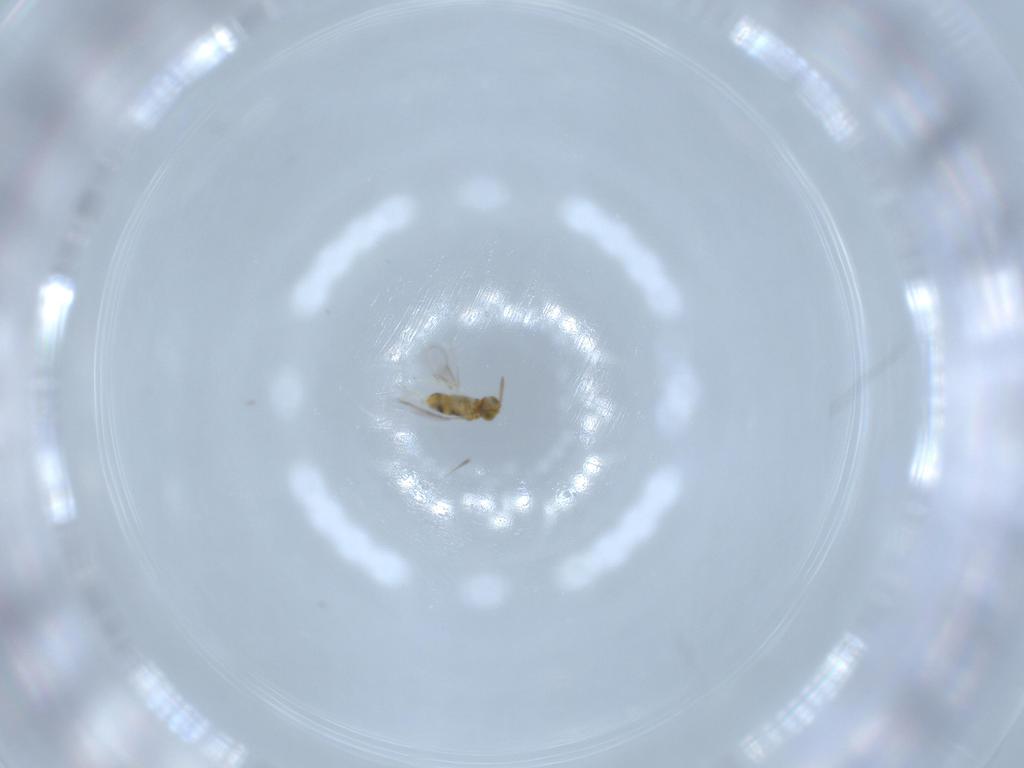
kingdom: Animalia
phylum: Arthropoda
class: Insecta
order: Hymenoptera
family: Aphelinidae
